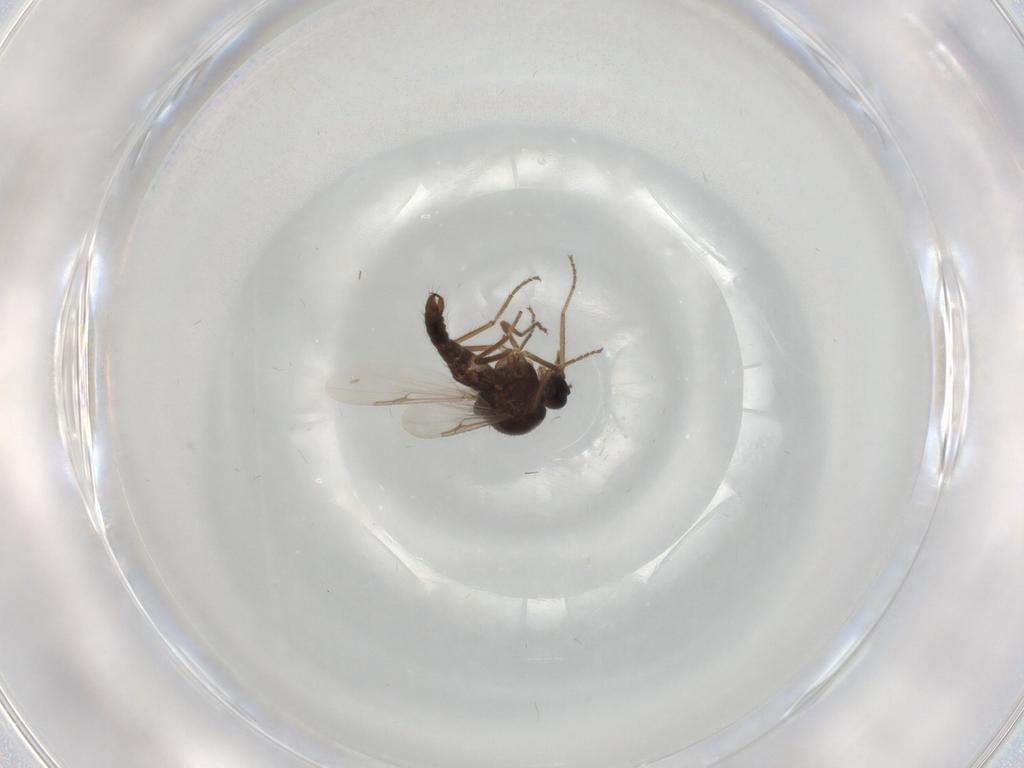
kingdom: Animalia
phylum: Arthropoda
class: Insecta
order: Diptera
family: Ceratopogonidae
